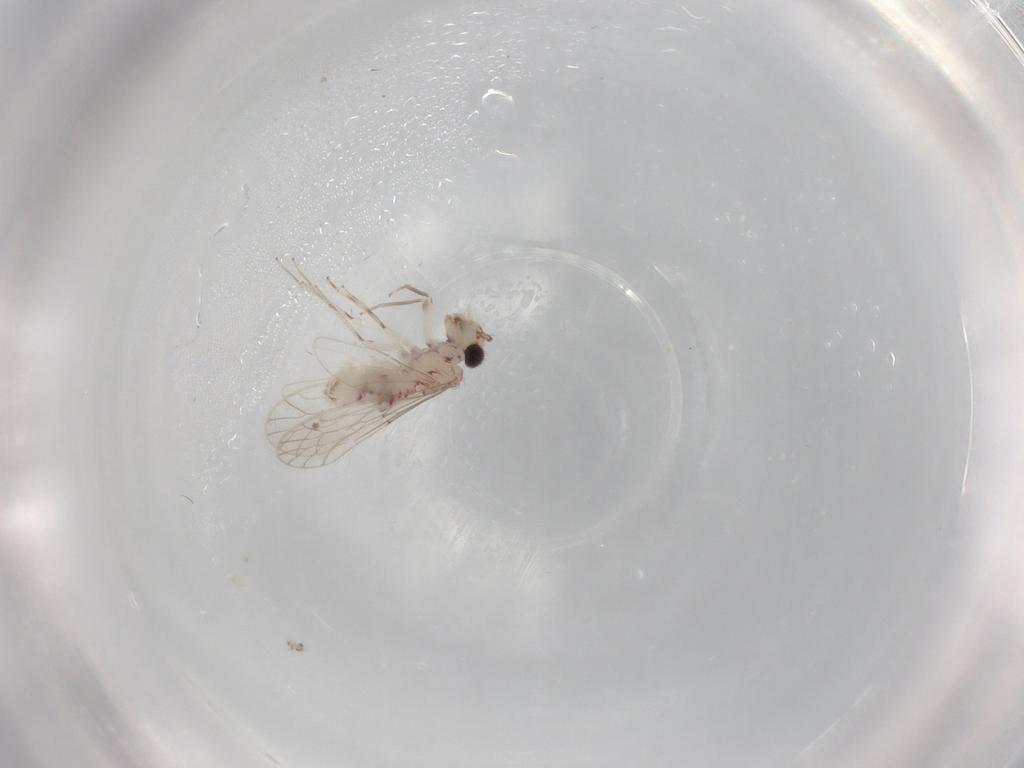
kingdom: Animalia
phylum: Arthropoda
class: Insecta
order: Psocodea
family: Caeciliusidae
